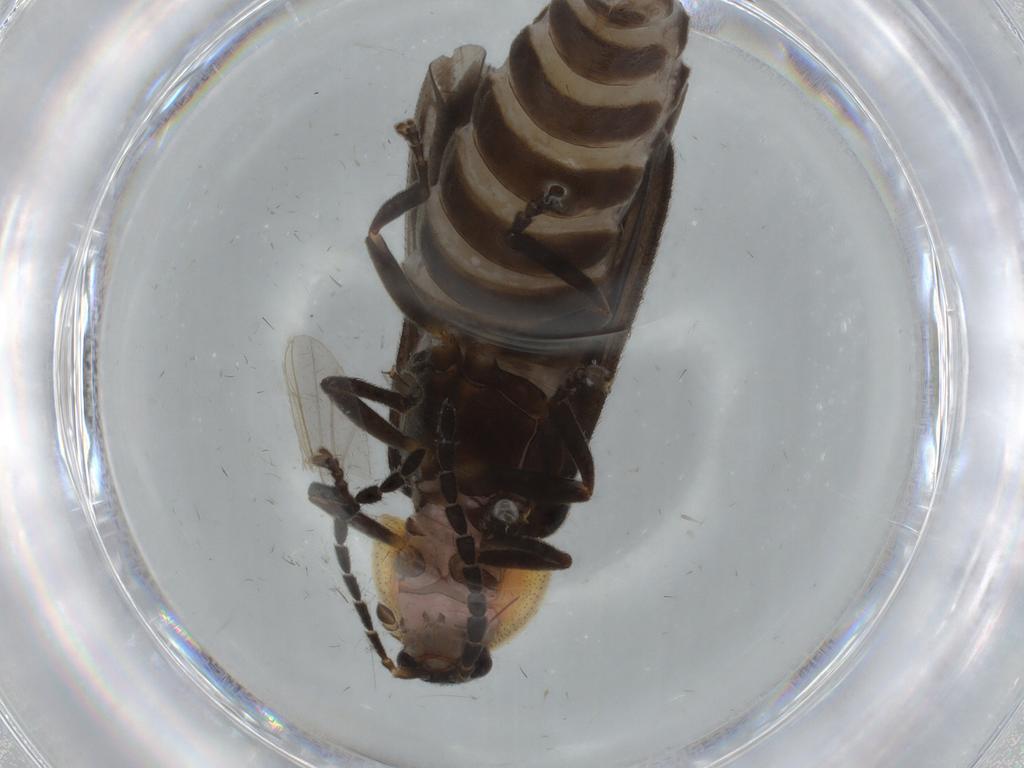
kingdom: Animalia
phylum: Arthropoda
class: Insecta
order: Coleoptera
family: Erotylidae
